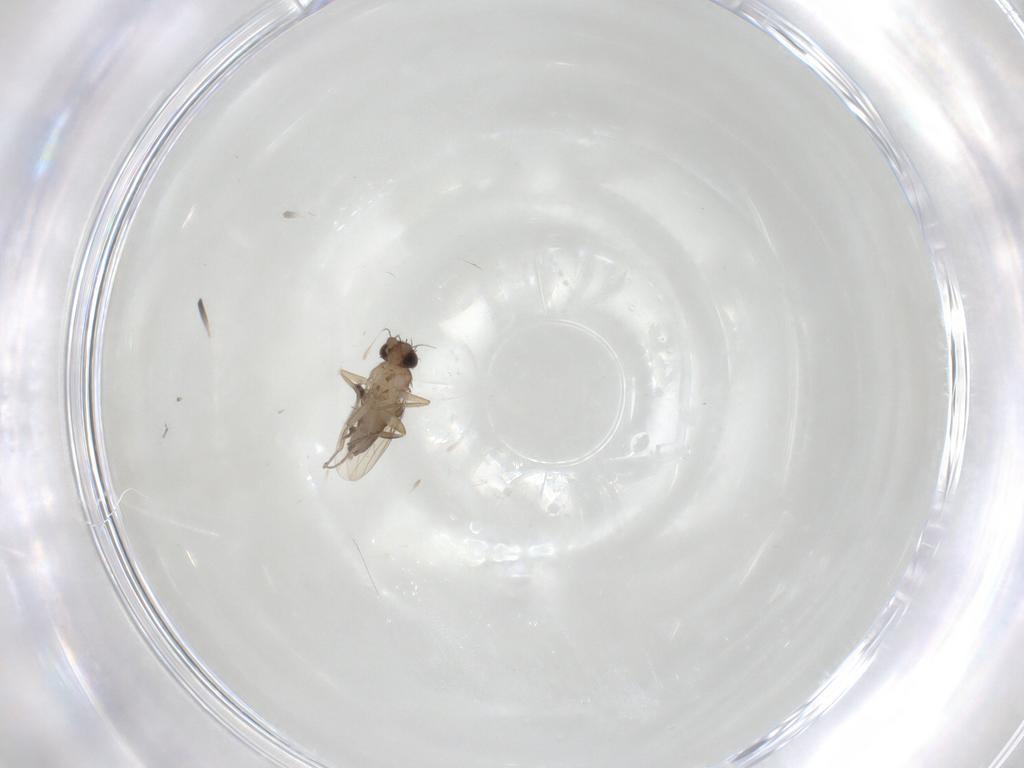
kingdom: Animalia
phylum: Arthropoda
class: Insecta
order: Diptera
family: Phoridae
